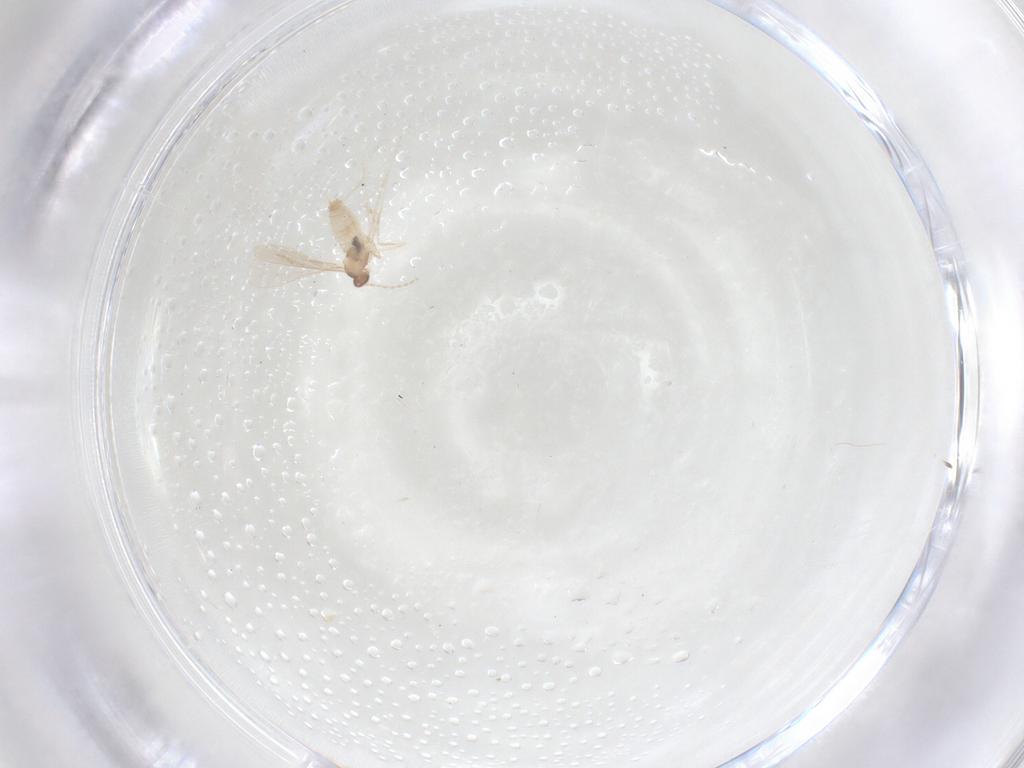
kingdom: Animalia
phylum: Arthropoda
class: Insecta
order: Diptera
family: Cecidomyiidae
